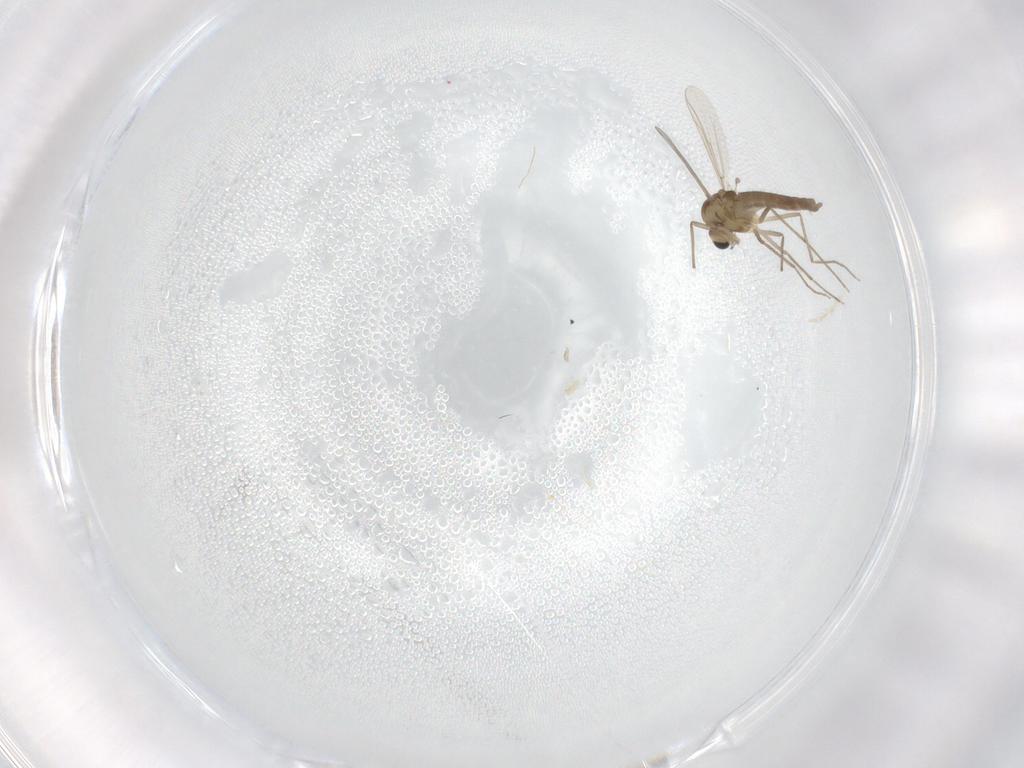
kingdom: Animalia
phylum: Arthropoda
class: Insecta
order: Diptera
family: Chironomidae
